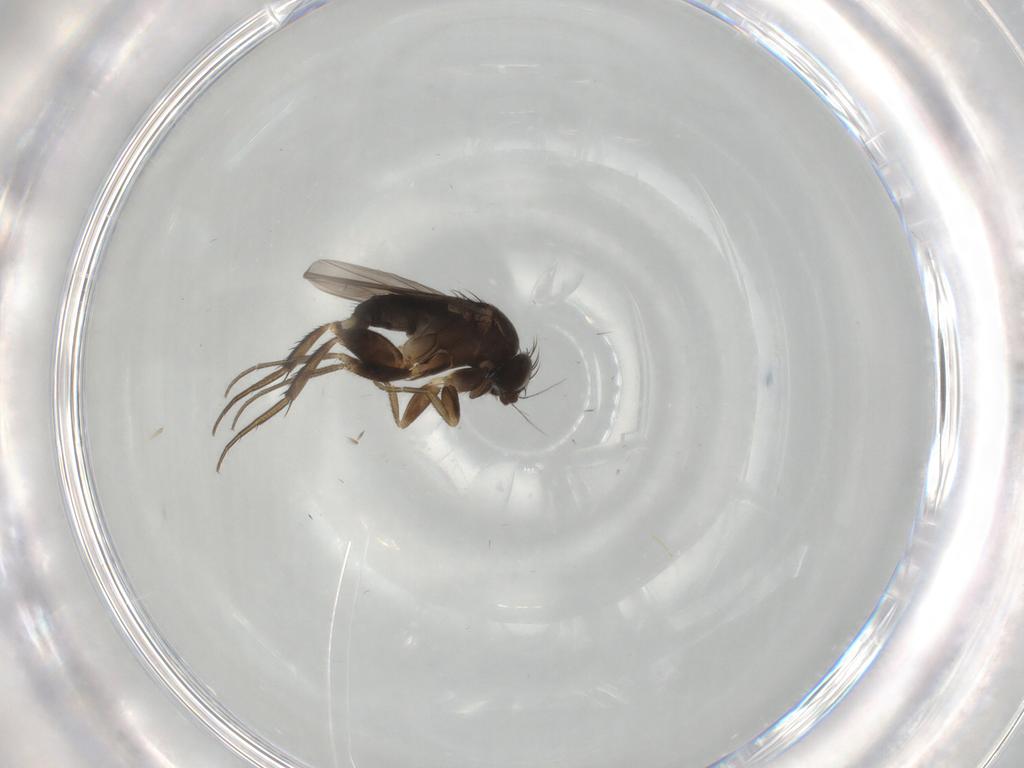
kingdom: Animalia
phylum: Arthropoda
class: Insecta
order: Diptera
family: Phoridae
